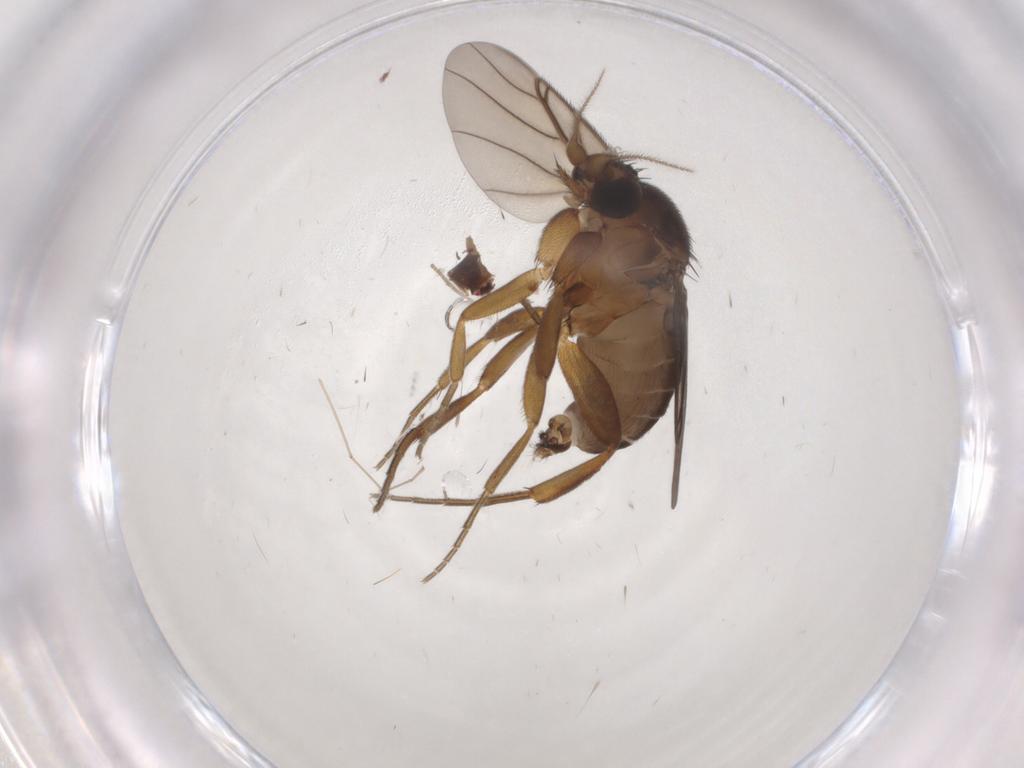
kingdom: Animalia
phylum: Arthropoda
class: Insecta
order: Diptera
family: Phoridae
